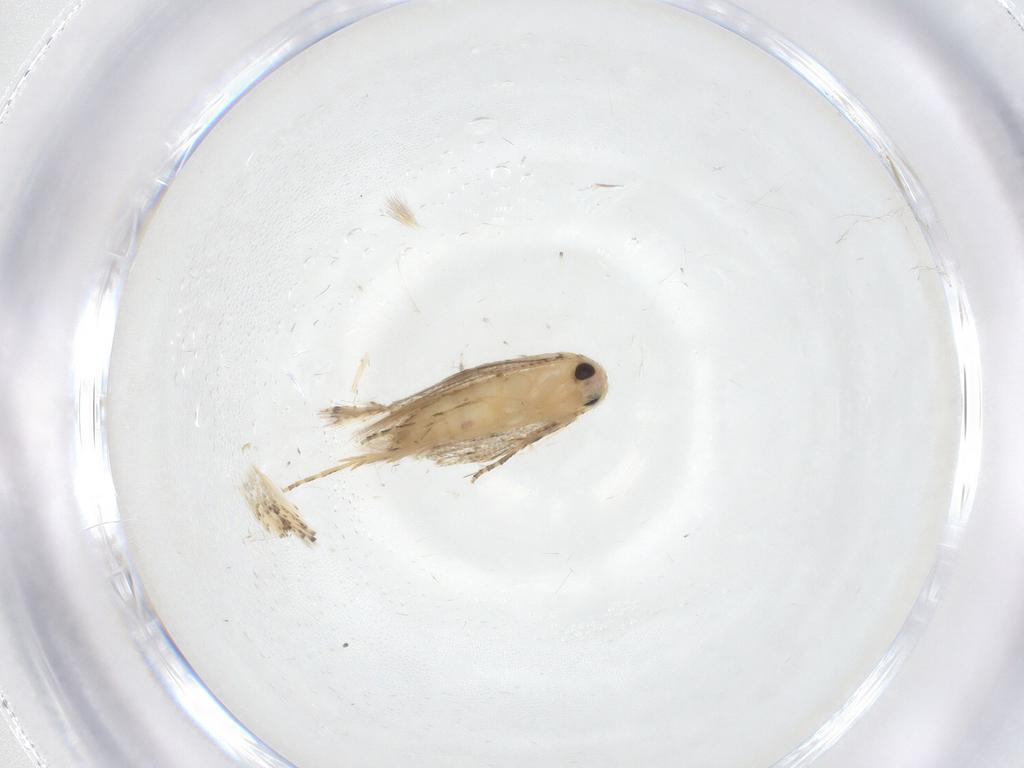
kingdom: Animalia
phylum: Arthropoda
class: Insecta
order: Lepidoptera
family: Bucculatricidae
